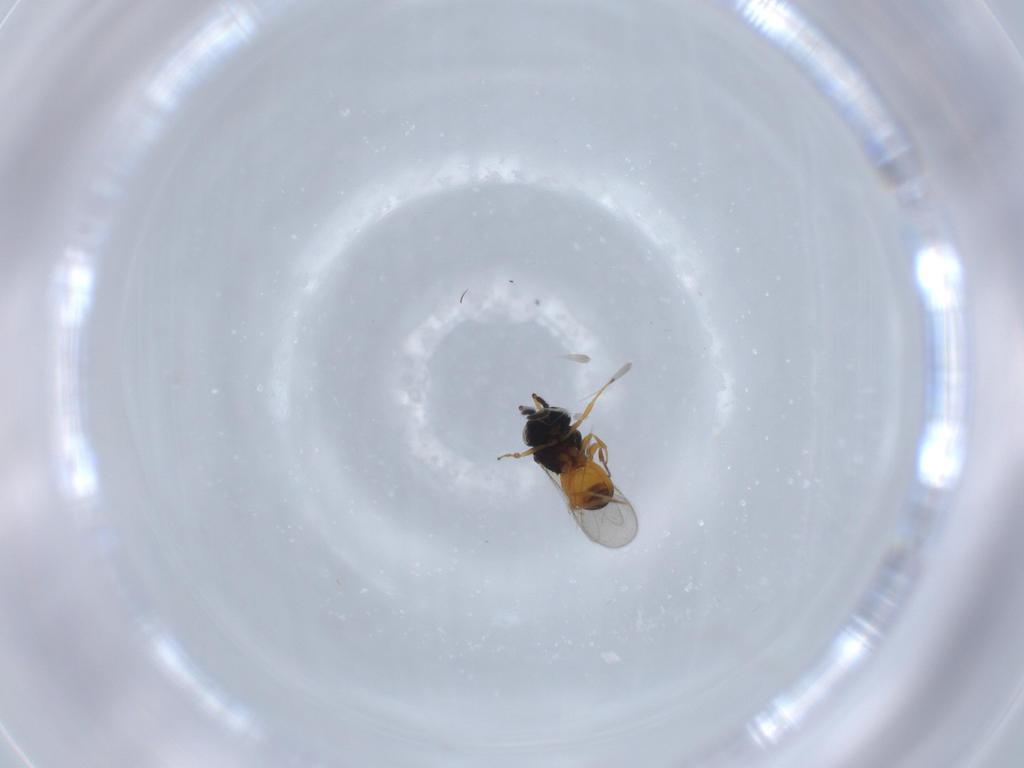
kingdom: Animalia
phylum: Arthropoda
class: Insecta
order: Hymenoptera
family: Scelionidae
